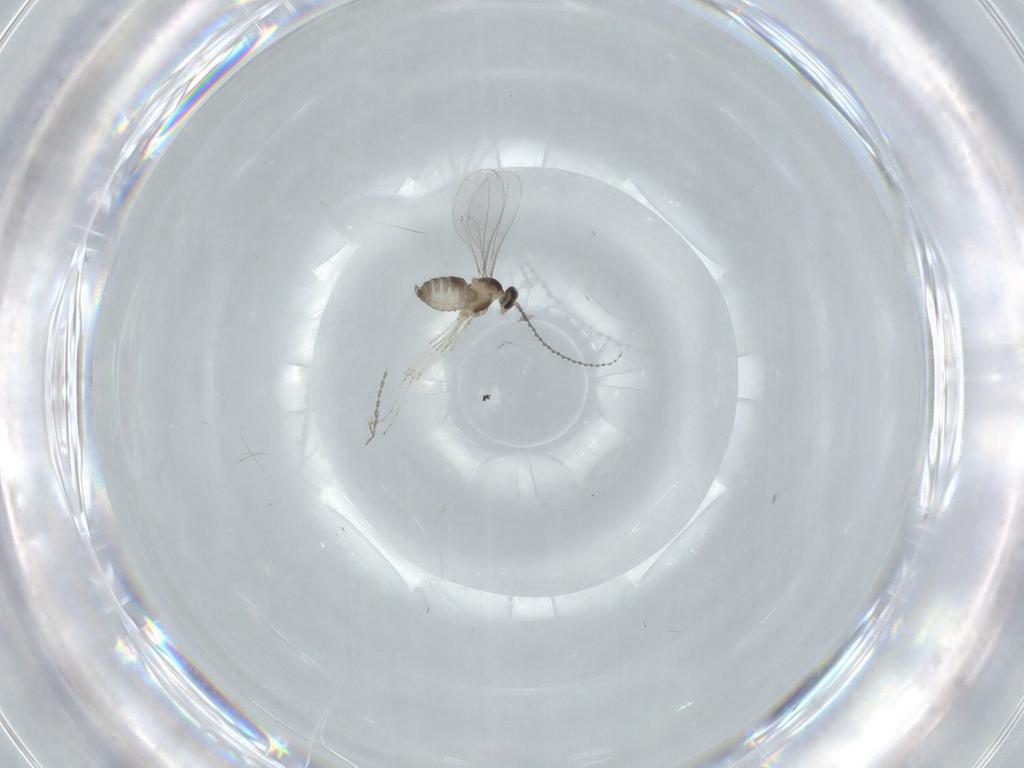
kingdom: Animalia
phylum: Arthropoda
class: Insecta
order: Diptera
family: Cecidomyiidae
